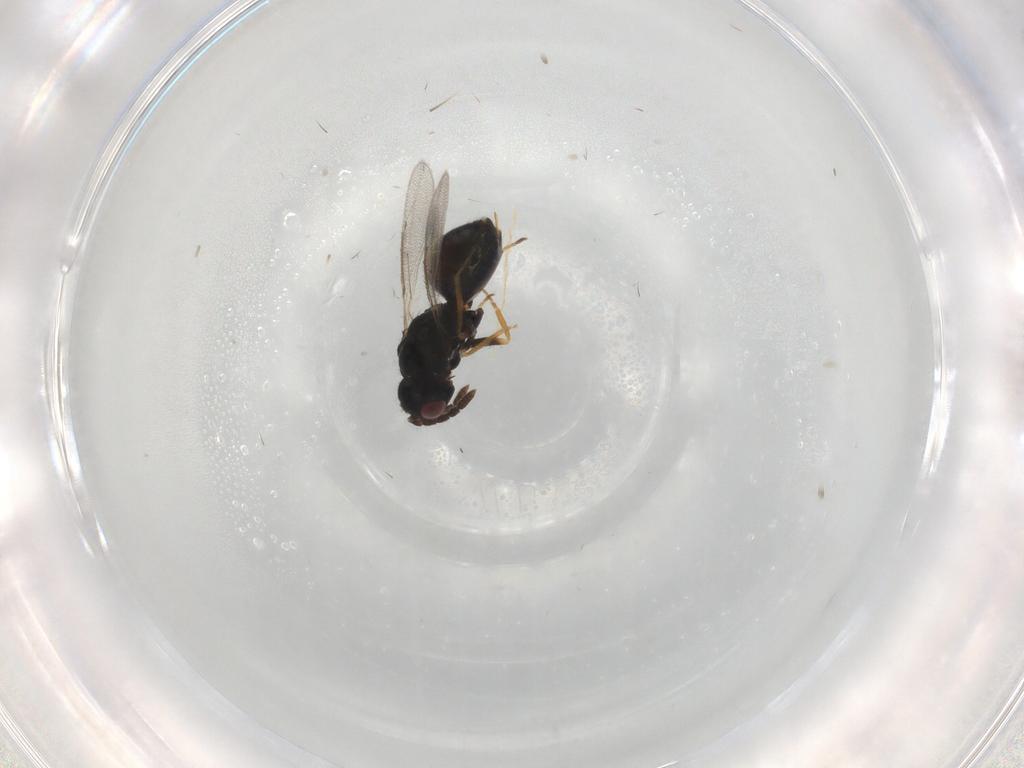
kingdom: Animalia
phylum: Arthropoda
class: Insecta
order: Hymenoptera
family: Eulophidae
